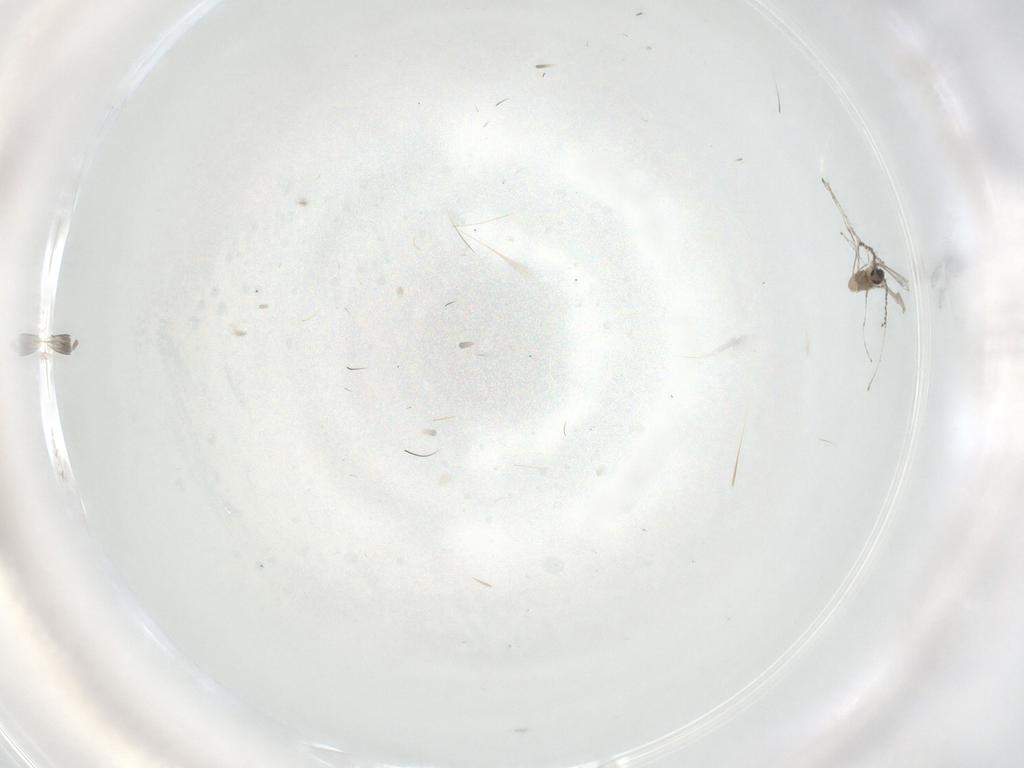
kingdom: Animalia
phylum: Arthropoda
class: Insecta
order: Diptera
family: Cecidomyiidae
